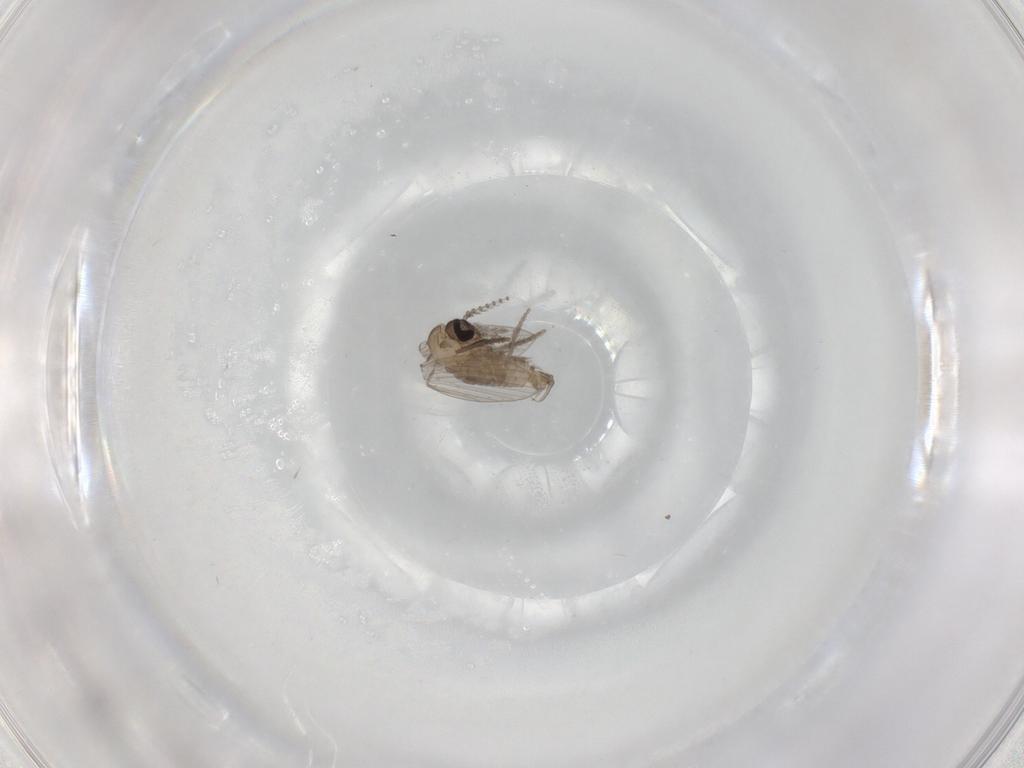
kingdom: Animalia
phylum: Arthropoda
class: Insecta
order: Diptera
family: Psychodidae
